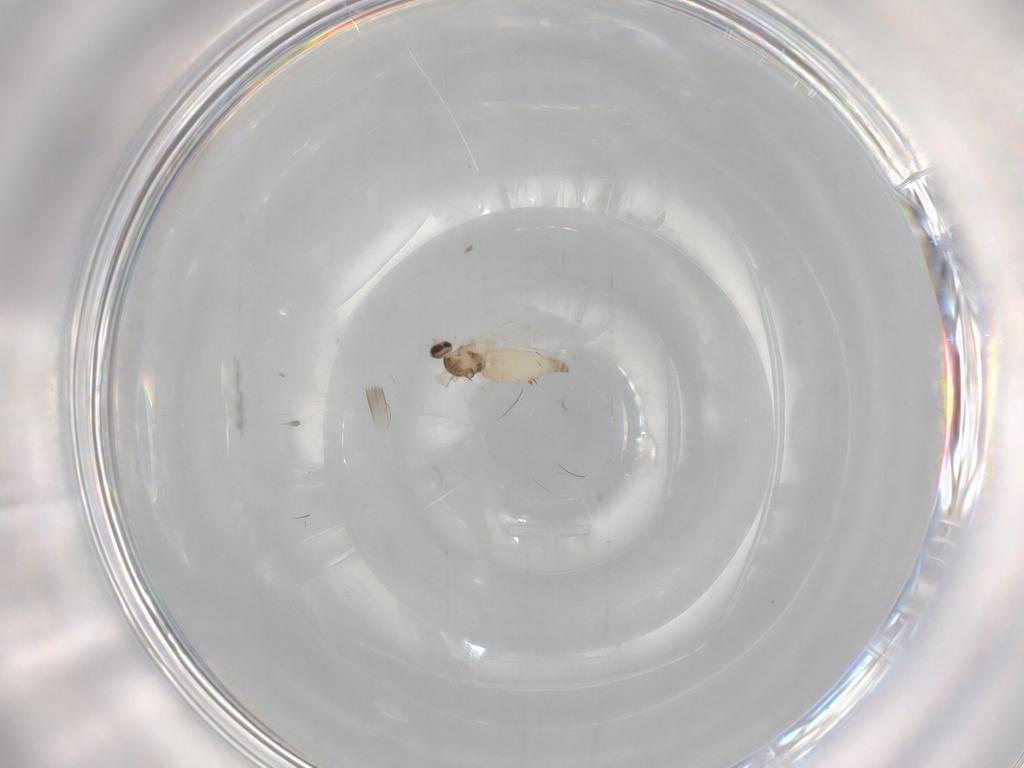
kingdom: Animalia
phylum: Arthropoda
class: Insecta
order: Diptera
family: Cecidomyiidae
